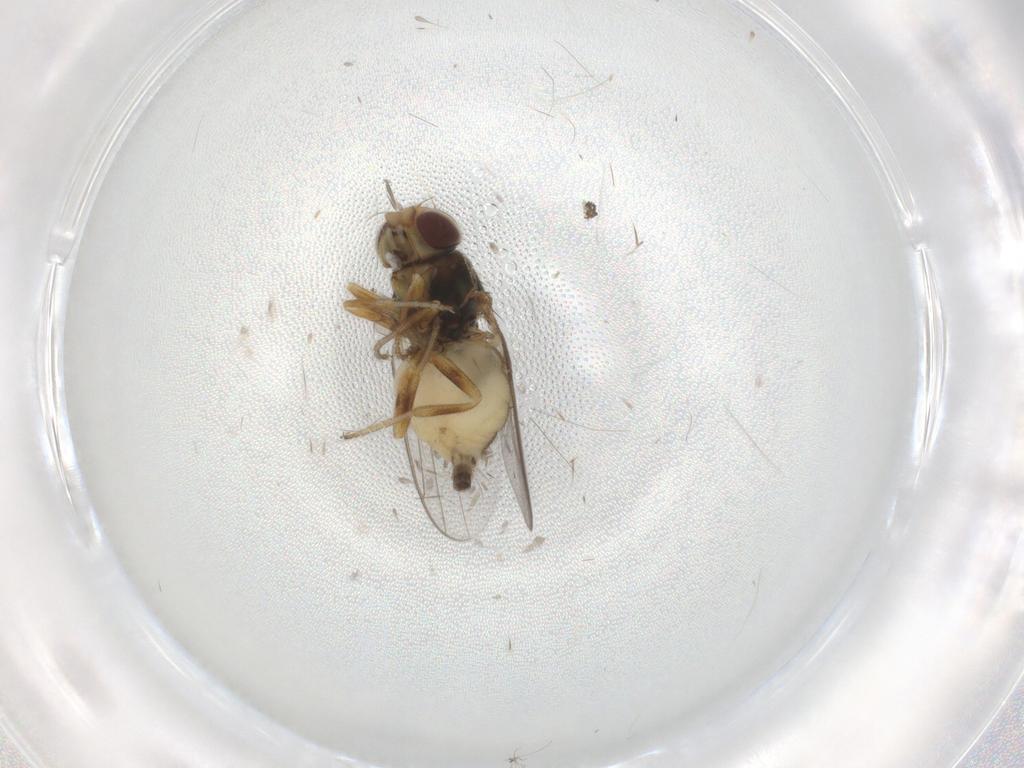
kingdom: Animalia
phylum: Arthropoda
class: Insecta
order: Diptera
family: Chloropidae
